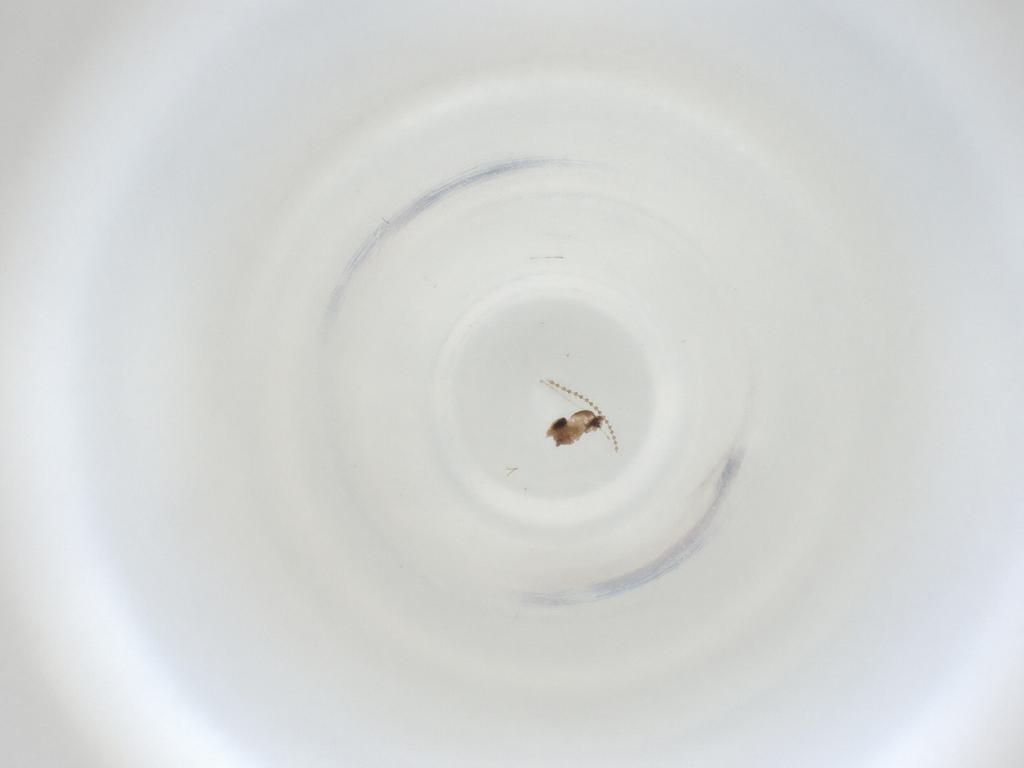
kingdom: Animalia
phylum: Arthropoda
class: Insecta
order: Diptera
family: Cecidomyiidae
